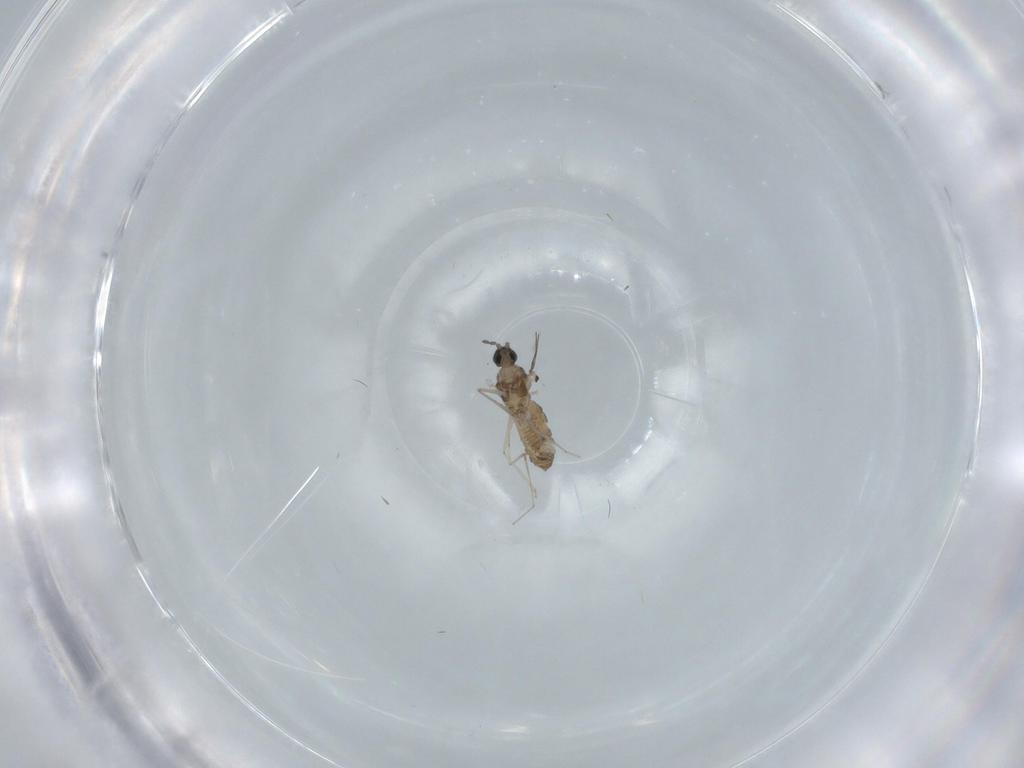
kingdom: Animalia
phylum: Arthropoda
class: Insecta
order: Diptera
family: Cecidomyiidae
